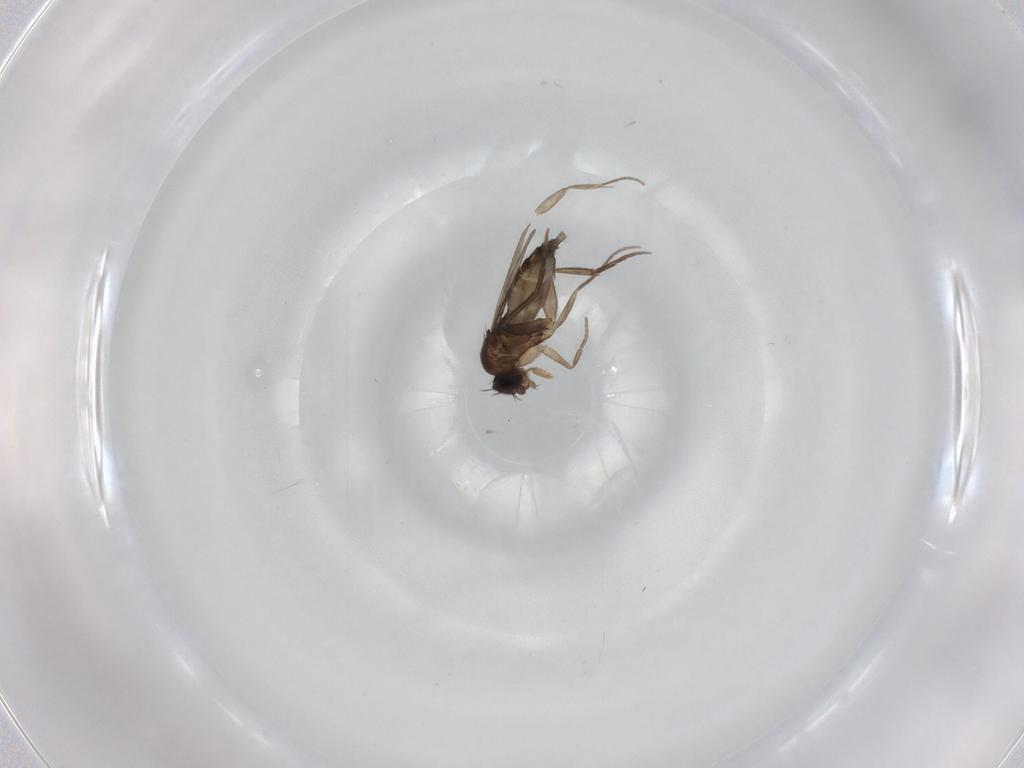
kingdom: Animalia
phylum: Arthropoda
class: Insecta
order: Diptera
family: Phoridae
